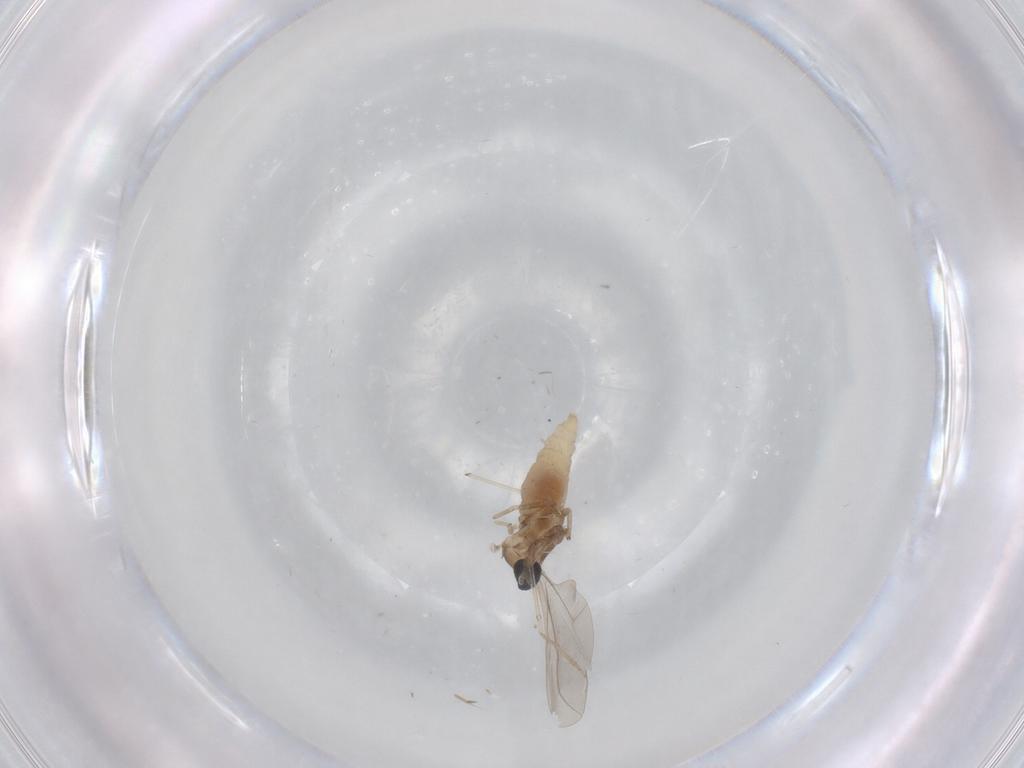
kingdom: Animalia
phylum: Arthropoda
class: Insecta
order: Diptera
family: Cecidomyiidae
